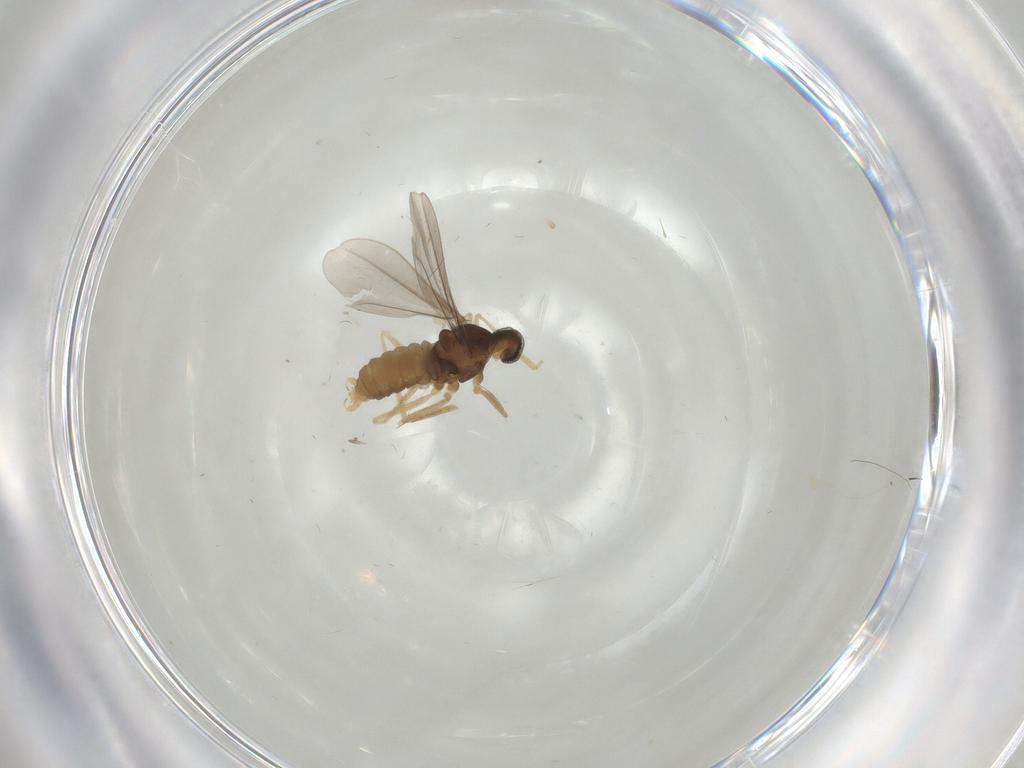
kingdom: Animalia
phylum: Arthropoda
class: Insecta
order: Diptera
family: Cecidomyiidae
